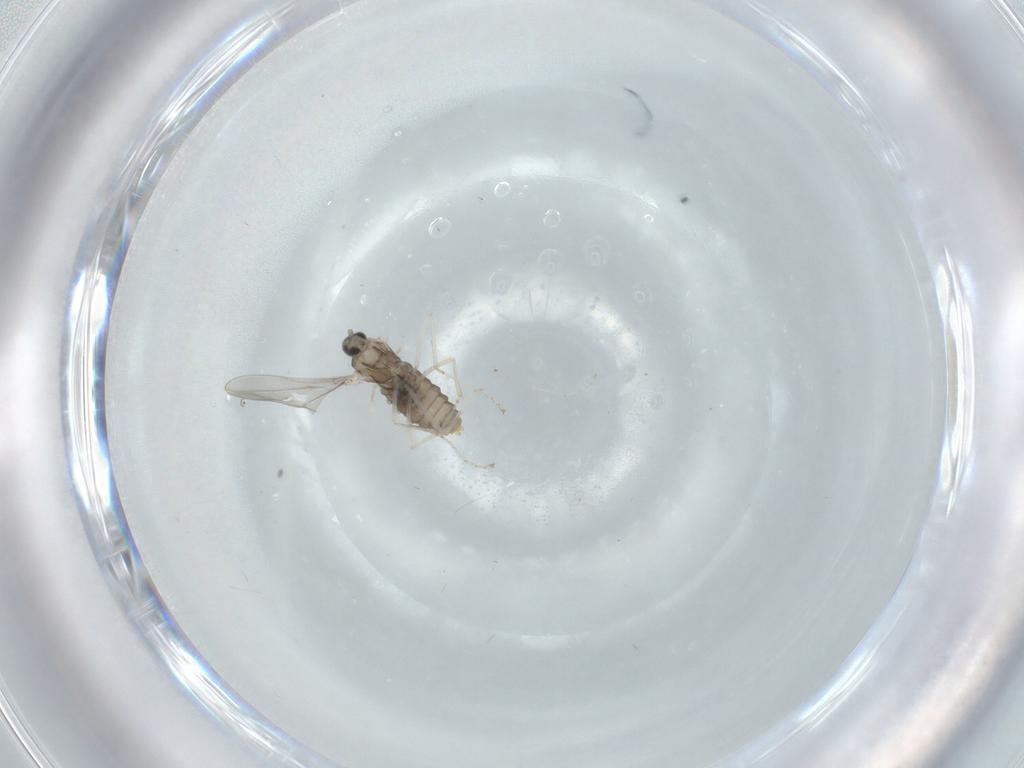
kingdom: Animalia
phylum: Arthropoda
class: Insecta
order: Diptera
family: Cecidomyiidae
